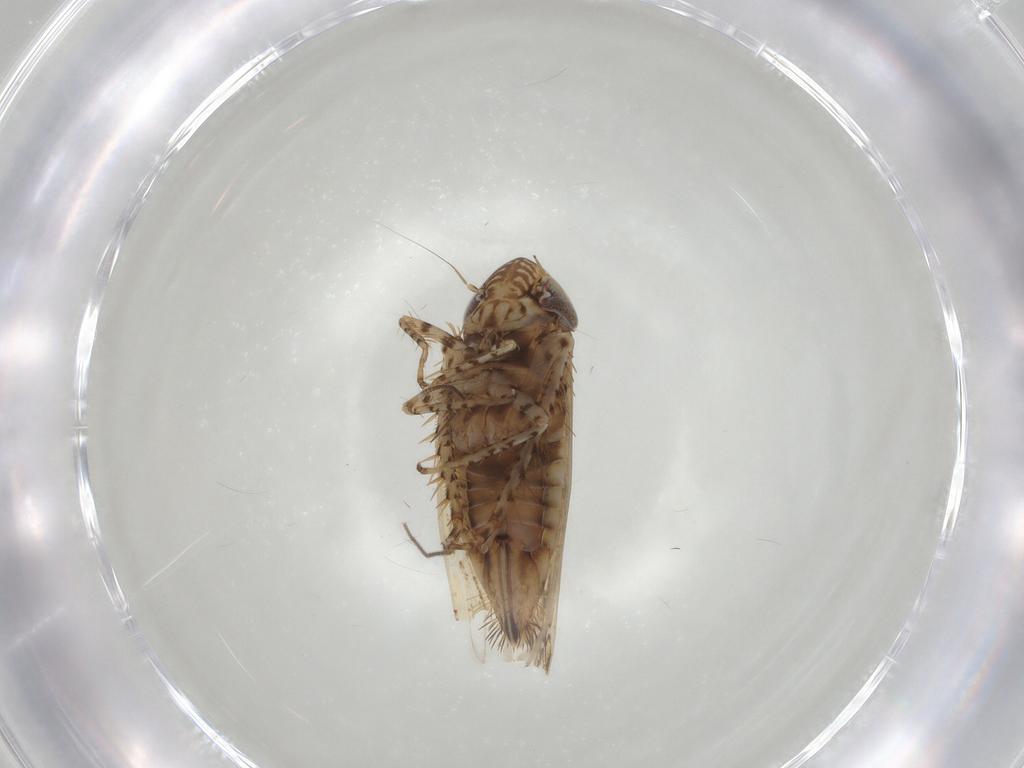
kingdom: Animalia
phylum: Arthropoda
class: Insecta
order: Hemiptera
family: Cicadellidae
